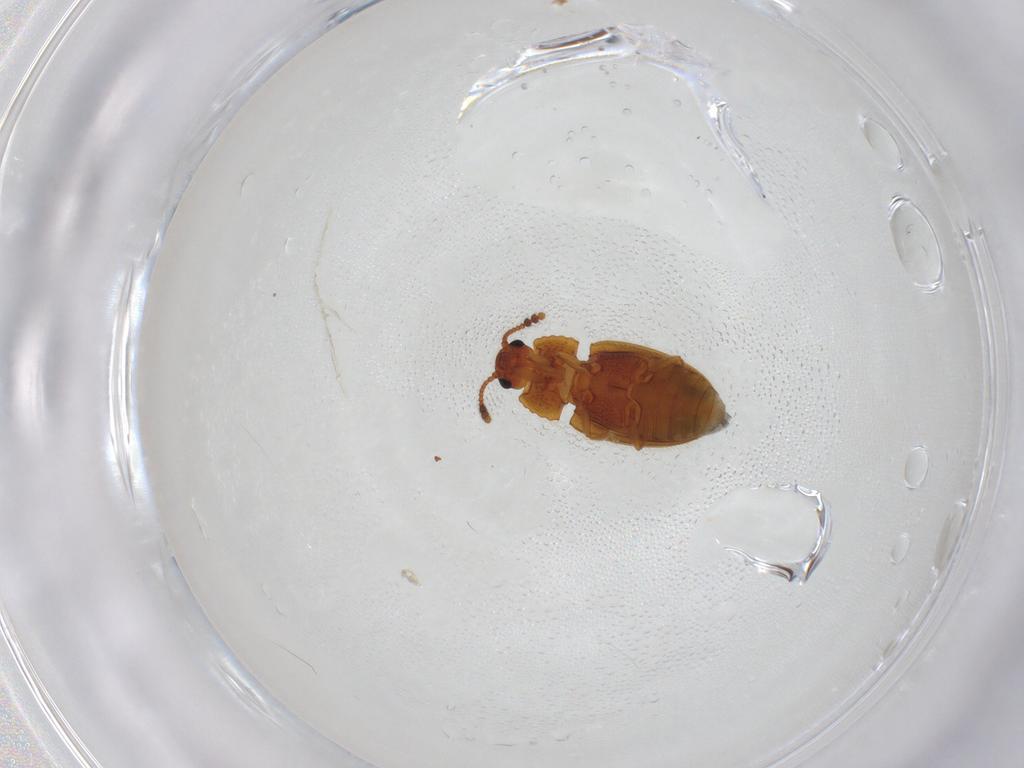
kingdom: Animalia
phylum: Arthropoda
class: Insecta
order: Coleoptera
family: Erotylidae
